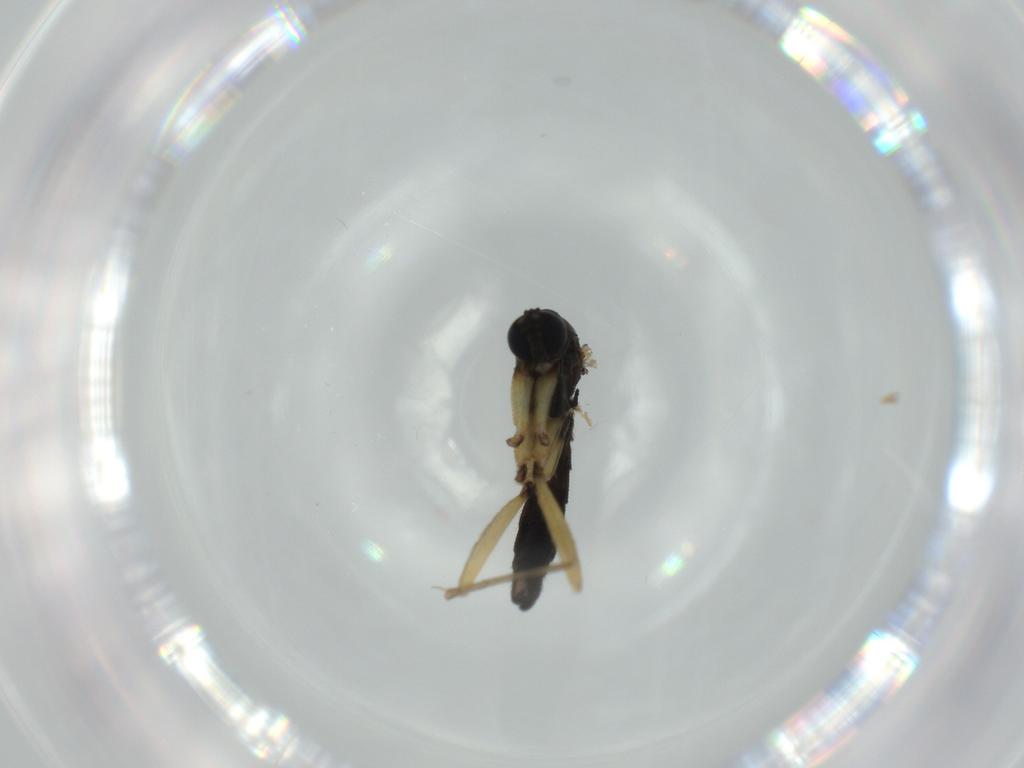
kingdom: Animalia
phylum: Arthropoda
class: Insecta
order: Diptera
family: Sciaridae
